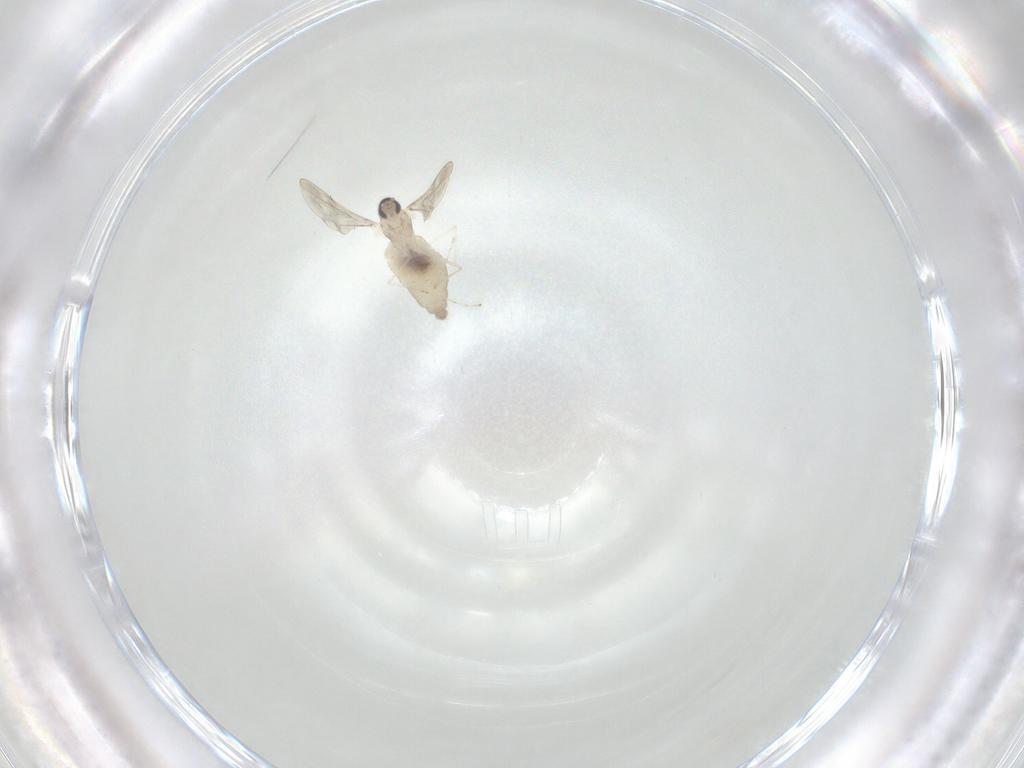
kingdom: Animalia
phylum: Arthropoda
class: Insecta
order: Diptera
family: Cecidomyiidae
